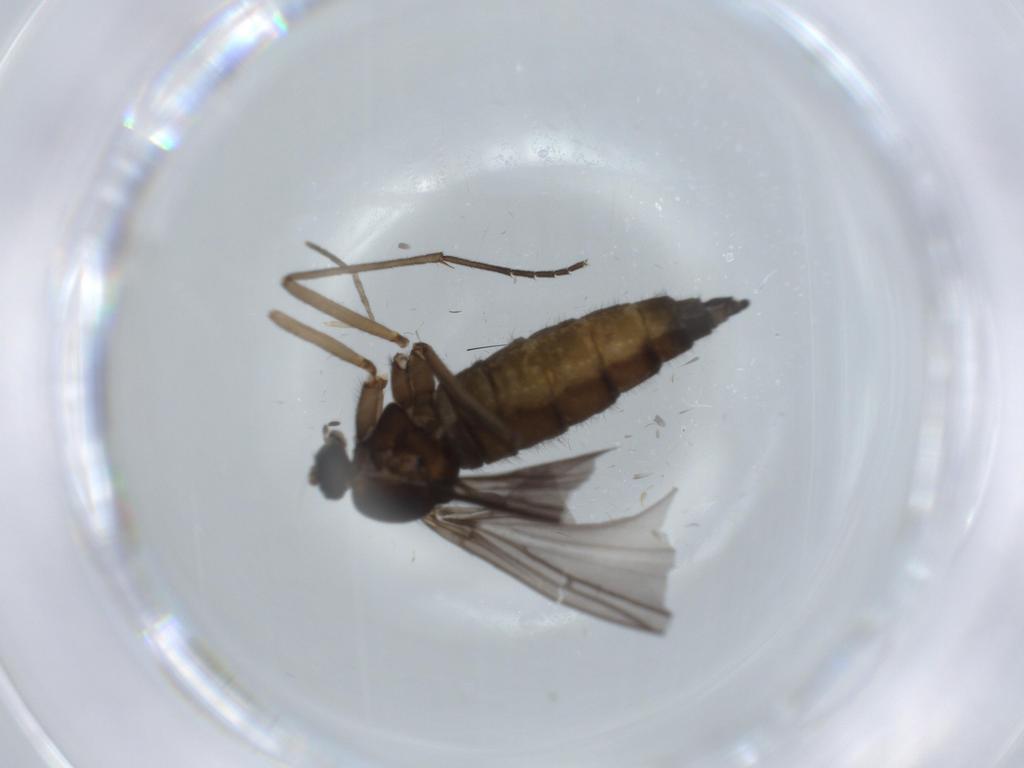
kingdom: Animalia
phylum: Arthropoda
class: Insecta
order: Diptera
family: Sciaridae
